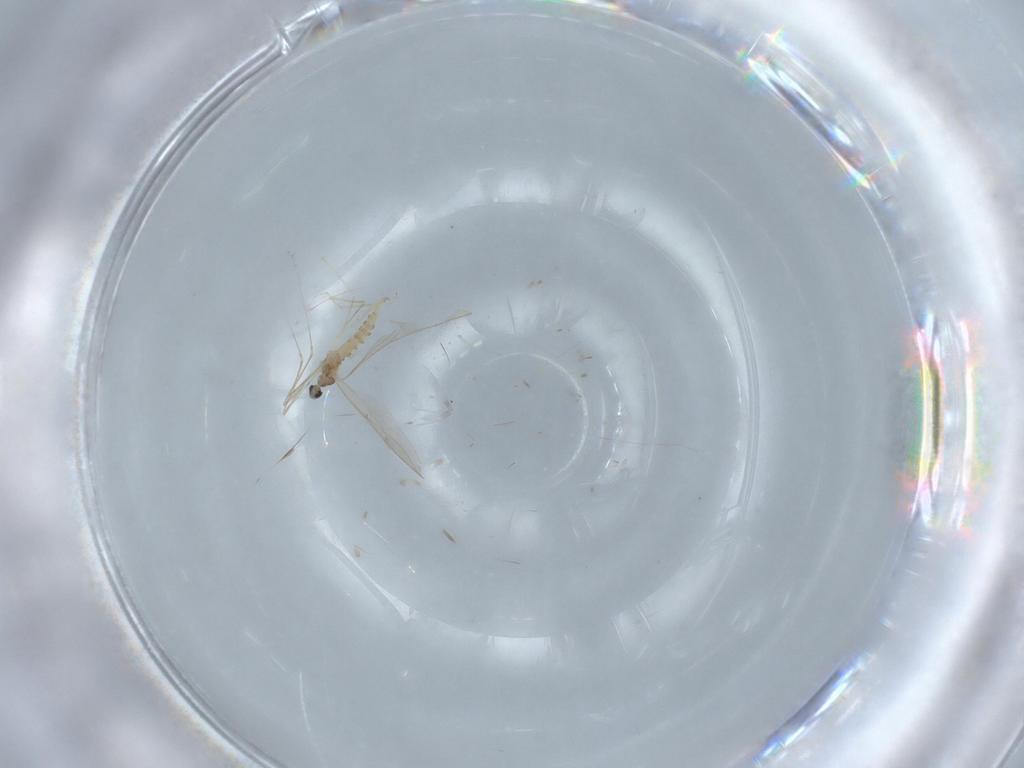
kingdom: Animalia
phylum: Arthropoda
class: Insecta
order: Diptera
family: Cecidomyiidae
